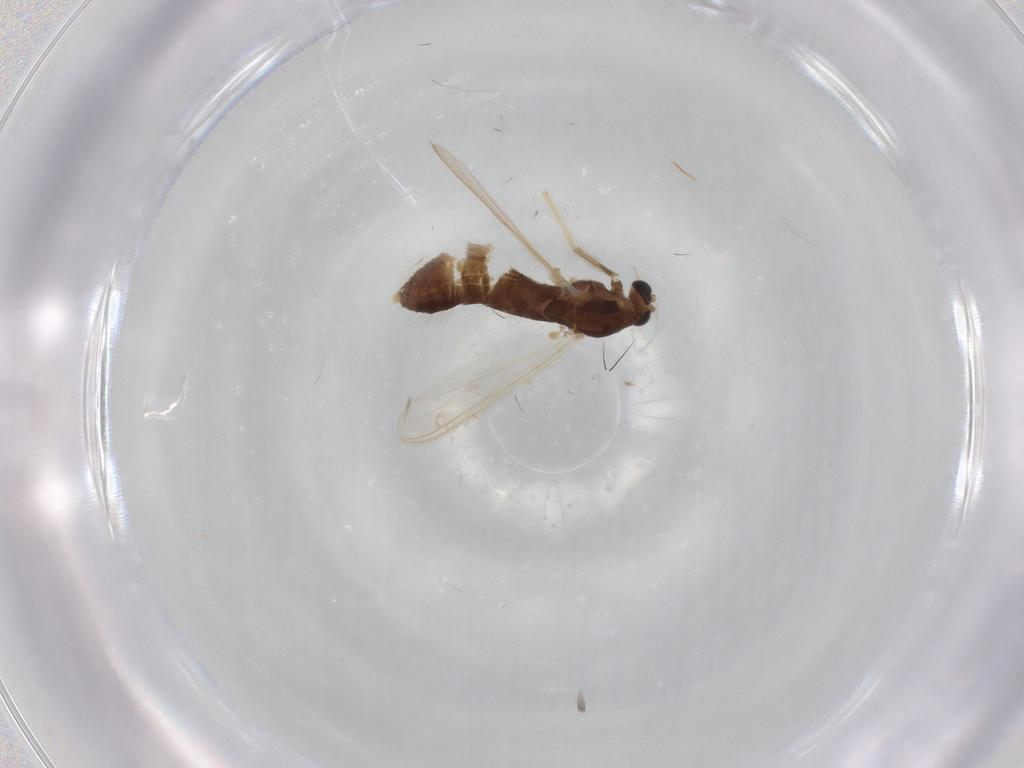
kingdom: Animalia
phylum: Arthropoda
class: Insecta
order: Diptera
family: Chironomidae
